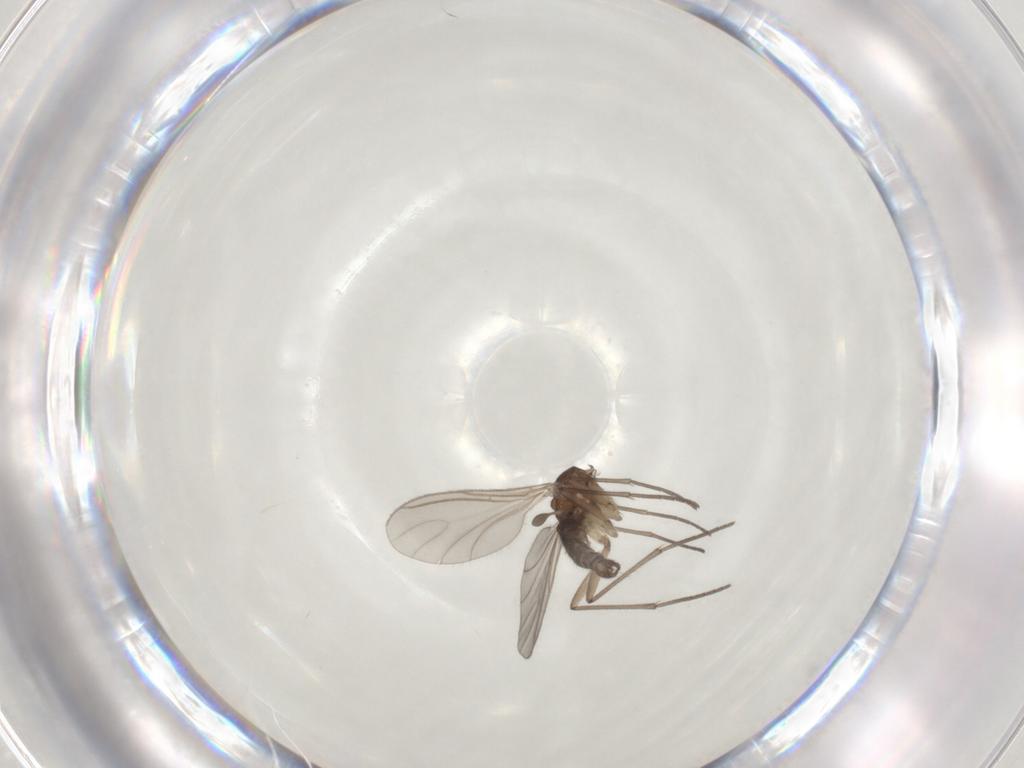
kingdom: Animalia
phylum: Arthropoda
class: Insecta
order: Diptera
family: Sciaridae
